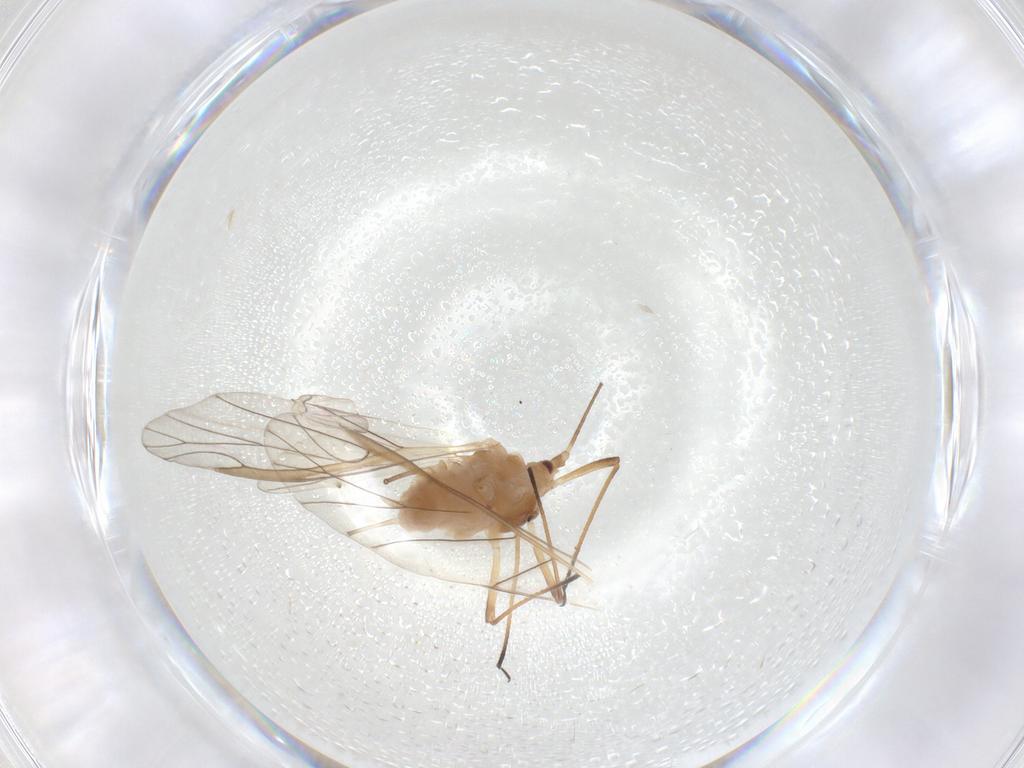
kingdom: Animalia
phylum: Arthropoda
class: Insecta
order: Hemiptera
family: Aphididae
